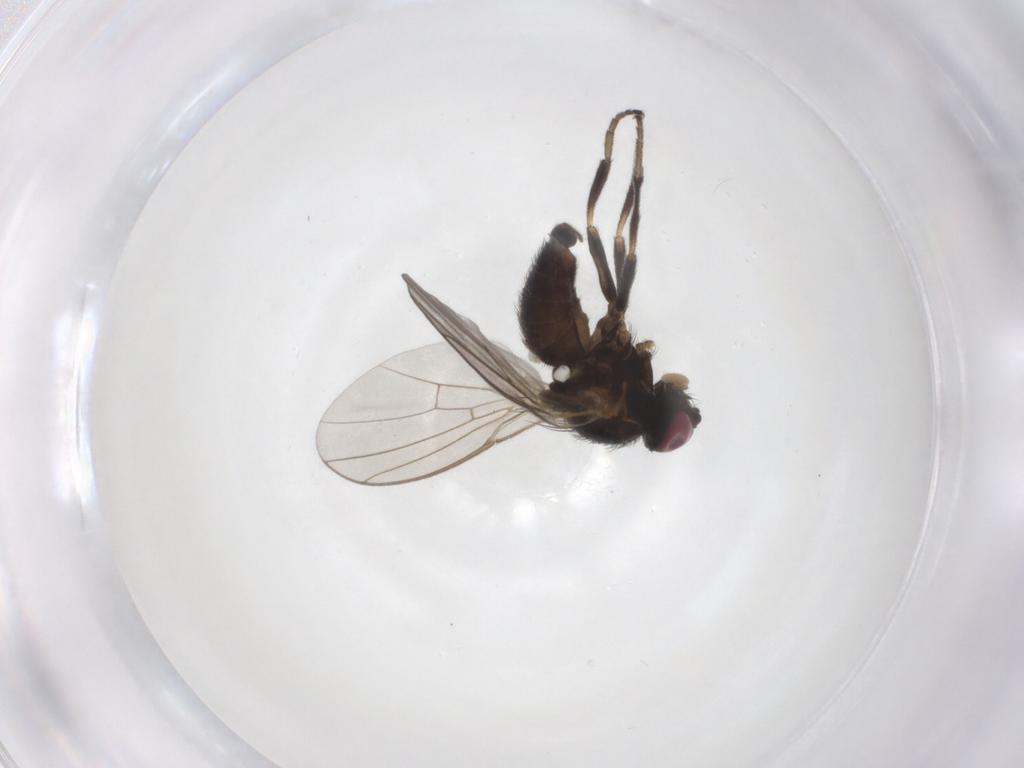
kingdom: Animalia
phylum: Arthropoda
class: Insecta
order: Diptera
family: Agromyzidae
